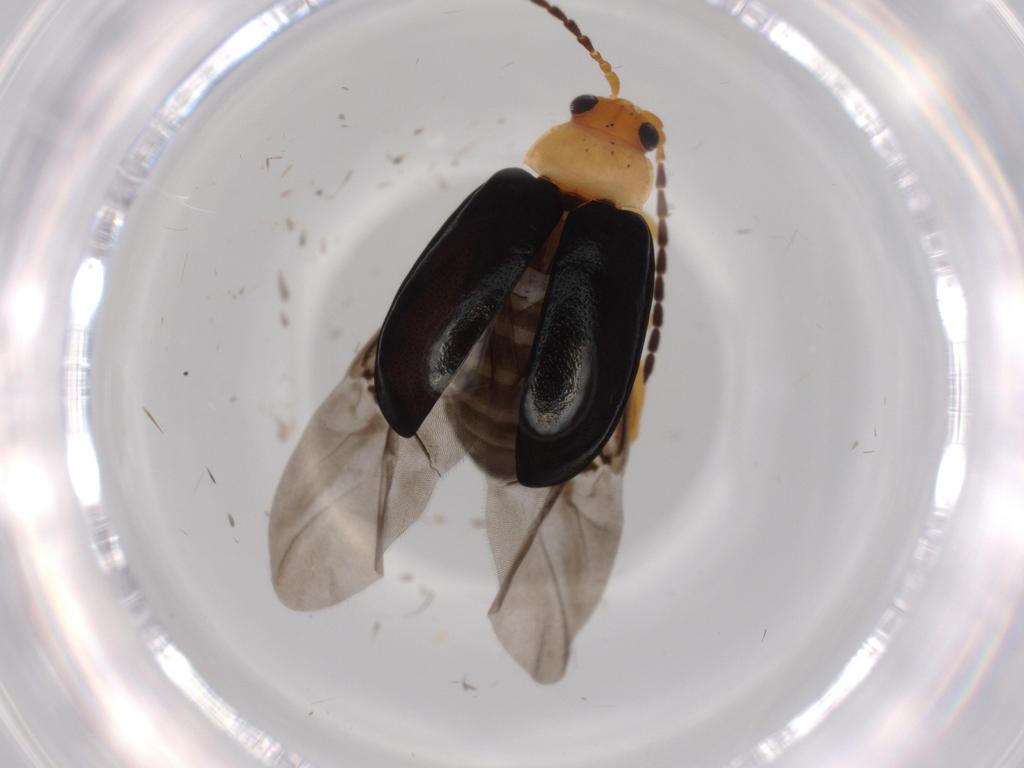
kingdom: Animalia
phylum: Arthropoda
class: Insecta
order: Coleoptera
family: Chrysomelidae
